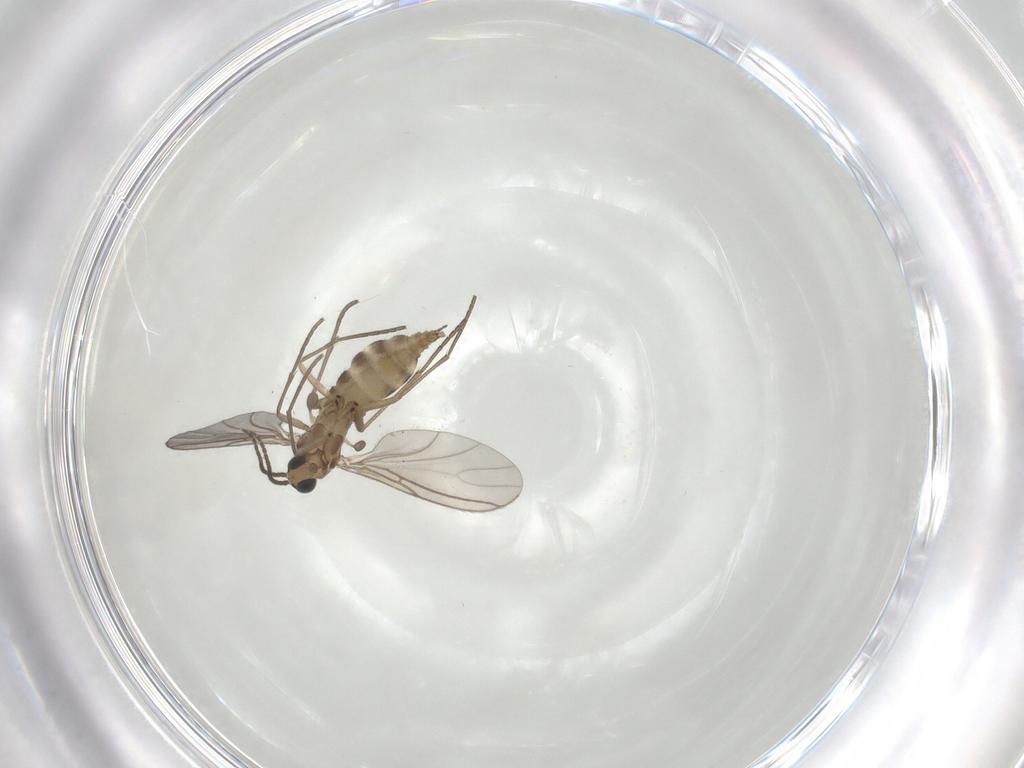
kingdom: Animalia
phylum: Arthropoda
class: Insecta
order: Diptera
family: Sciaridae
